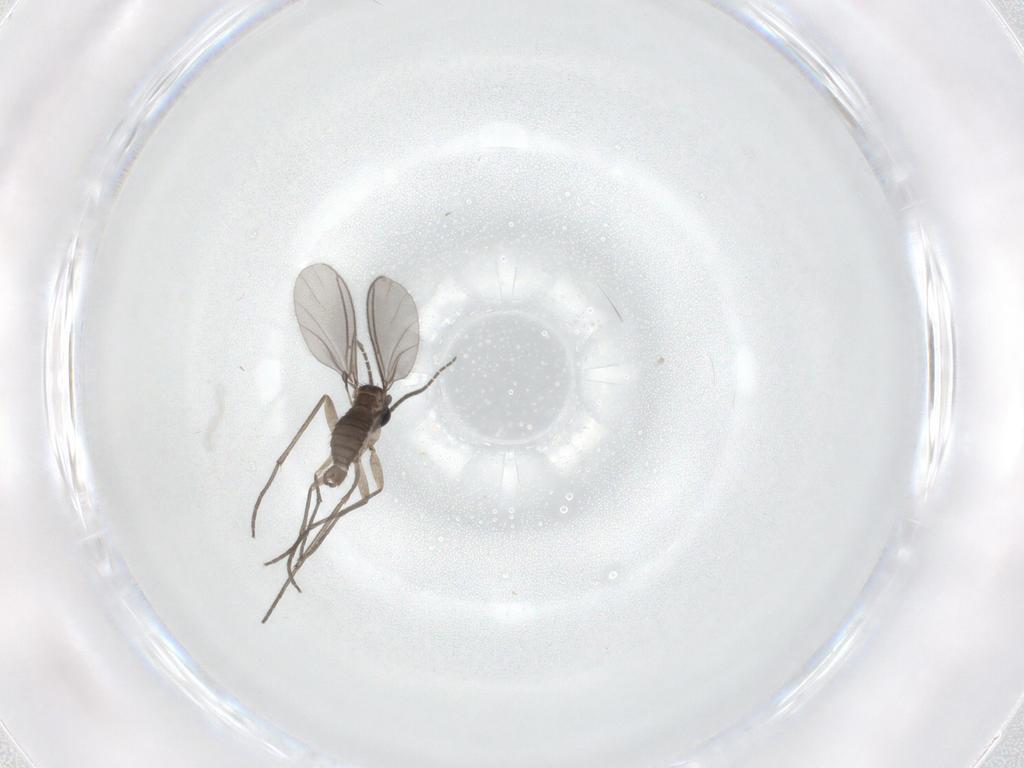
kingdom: Animalia
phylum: Arthropoda
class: Insecta
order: Diptera
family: Sciaridae
